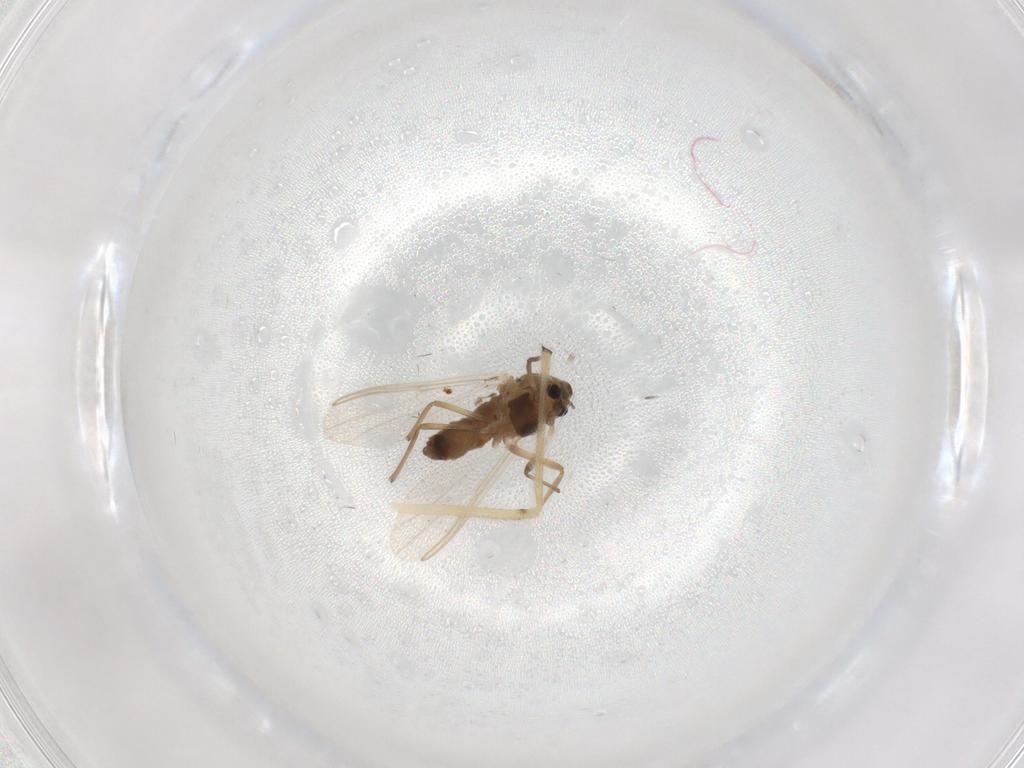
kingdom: Animalia
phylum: Arthropoda
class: Insecta
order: Diptera
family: Chironomidae
